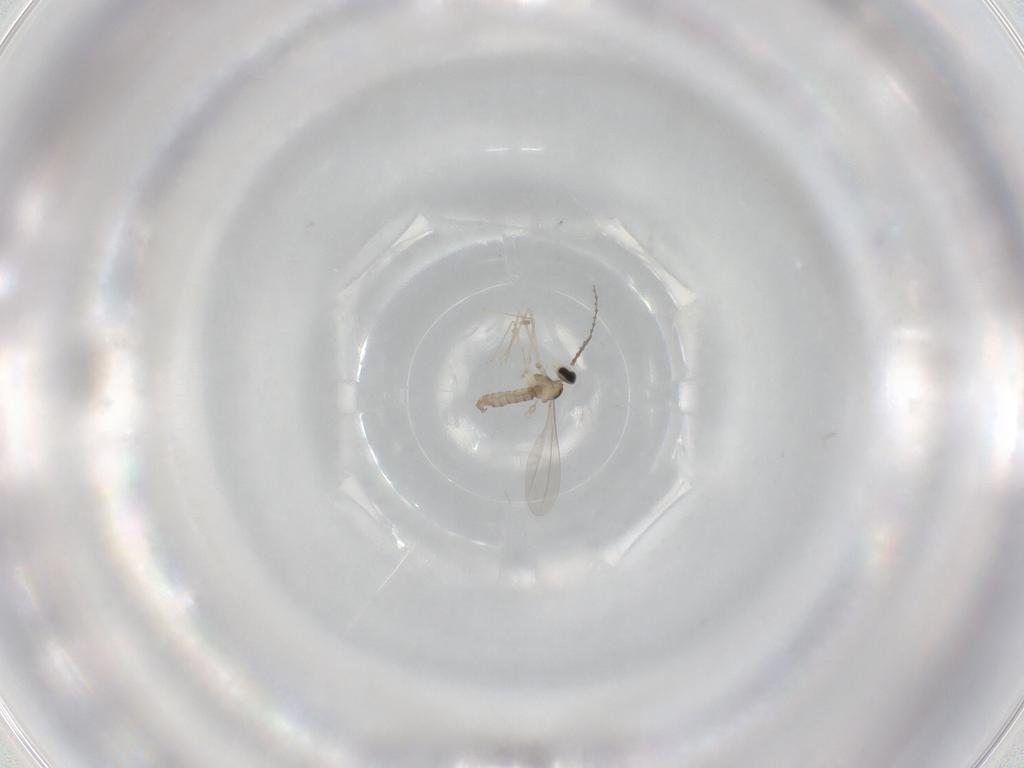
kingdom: Animalia
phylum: Arthropoda
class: Insecta
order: Diptera
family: Cecidomyiidae
